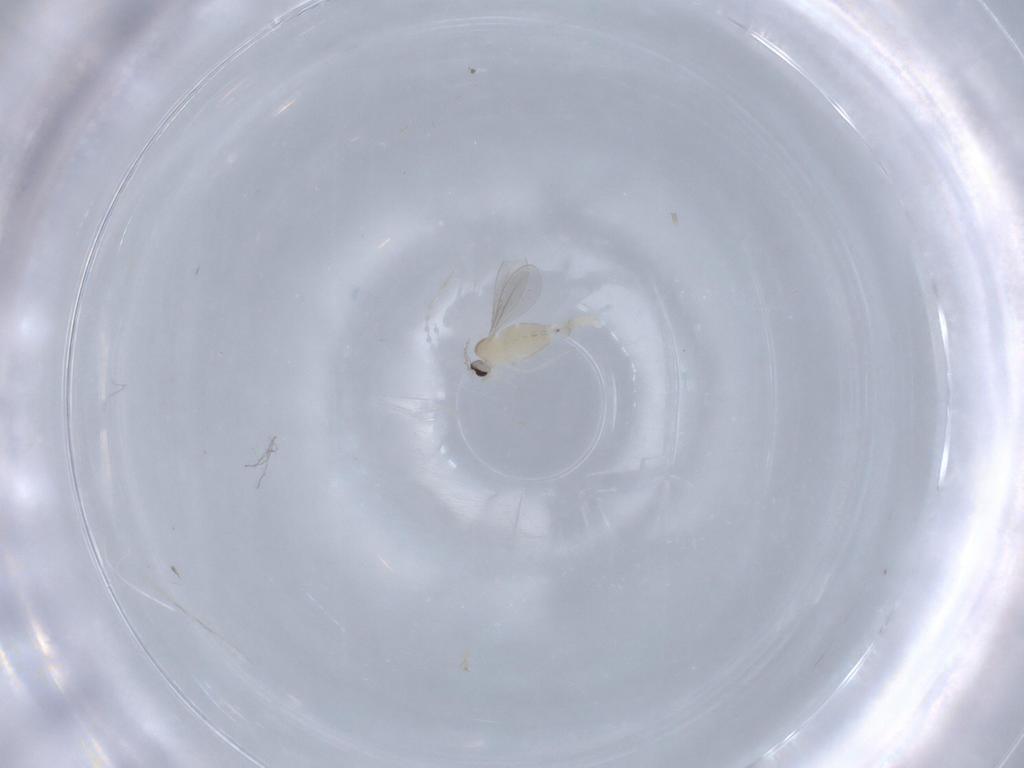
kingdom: Animalia
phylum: Arthropoda
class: Insecta
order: Diptera
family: Cecidomyiidae
